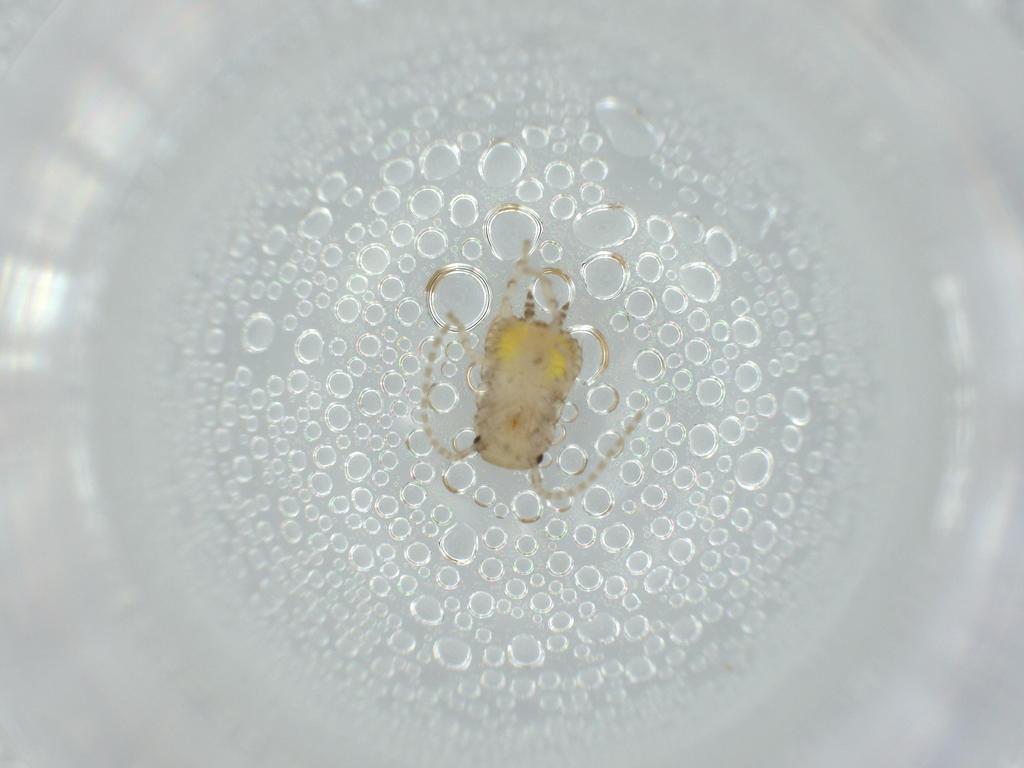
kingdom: Animalia
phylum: Arthropoda
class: Insecta
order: Blattodea
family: Ectobiidae
